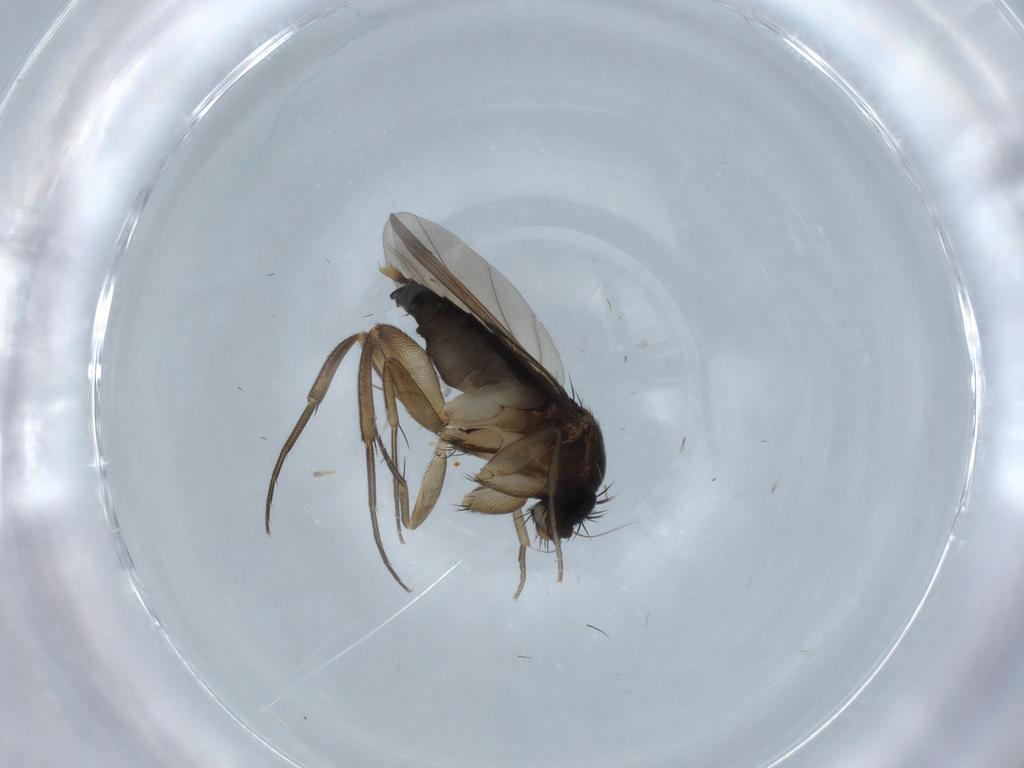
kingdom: Animalia
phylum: Arthropoda
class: Insecta
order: Diptera
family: Phoridae
